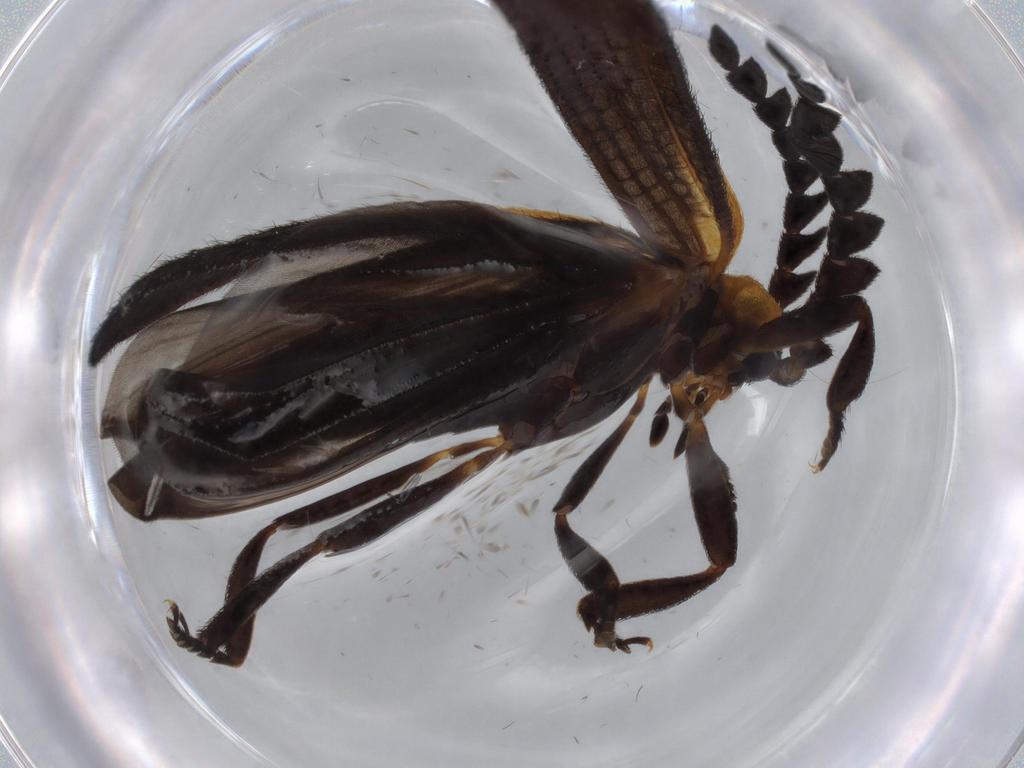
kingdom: Animalia
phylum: Arthropoda
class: Insecta
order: Coleoptera
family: Lycidae
